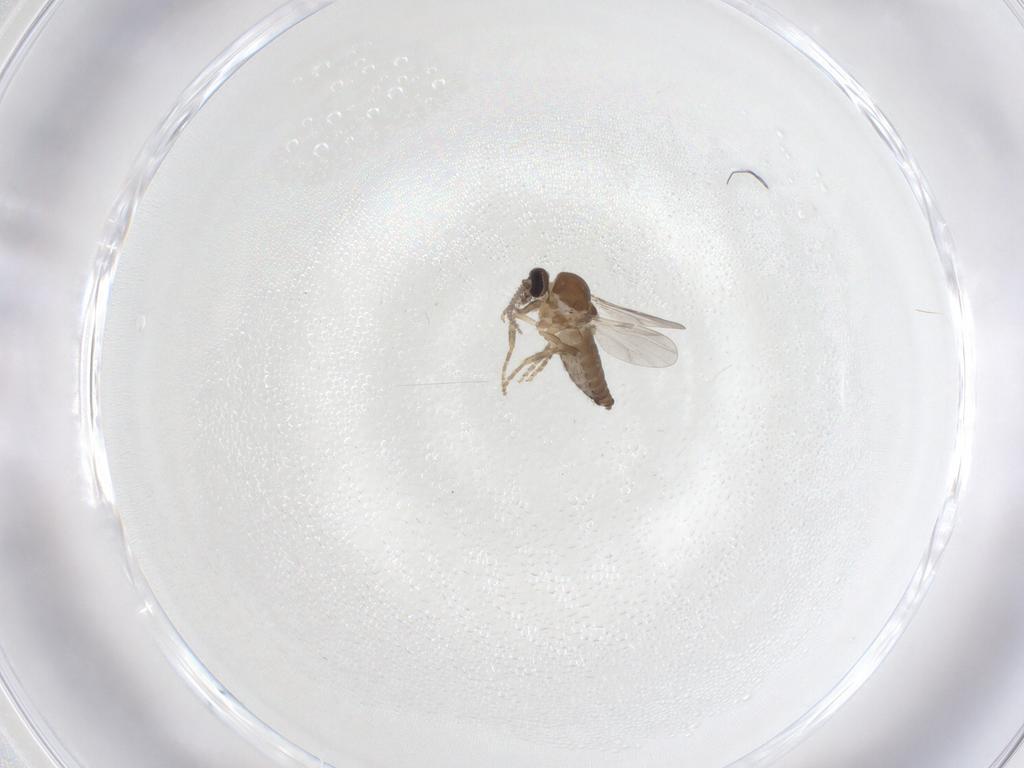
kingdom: Animalia
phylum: Arthropoda
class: Insecta
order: Diptera
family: Ceratopogonidae
